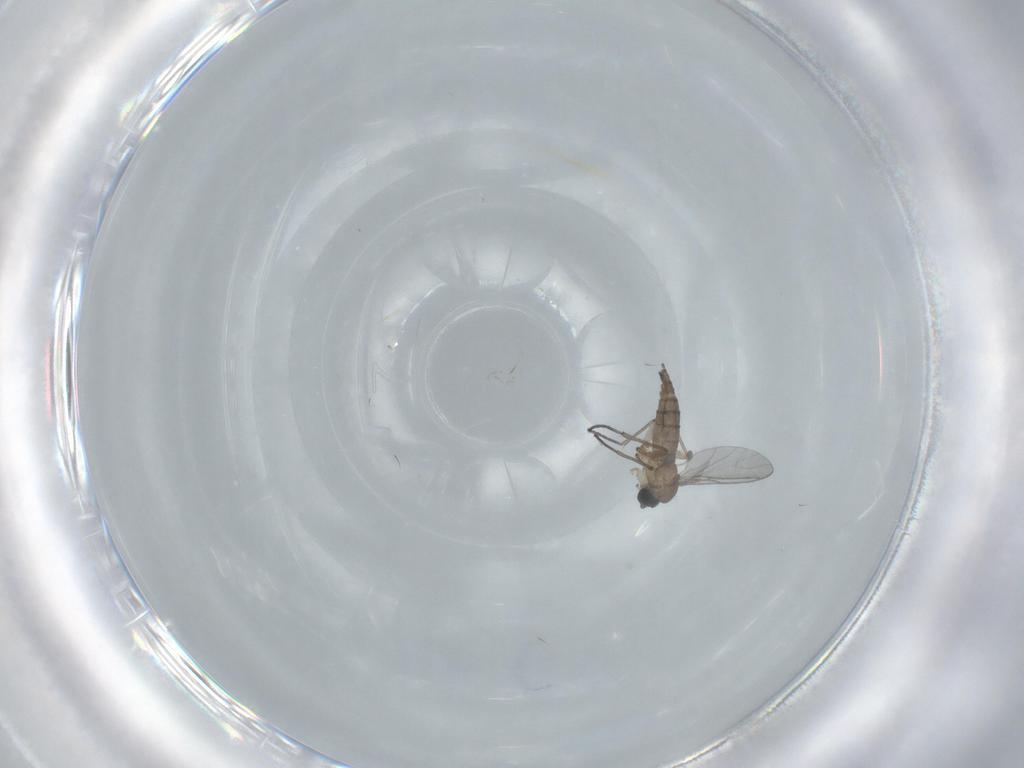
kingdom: Animalia
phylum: Arthropoda
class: Insecta
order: Diptera
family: Sciaridae
